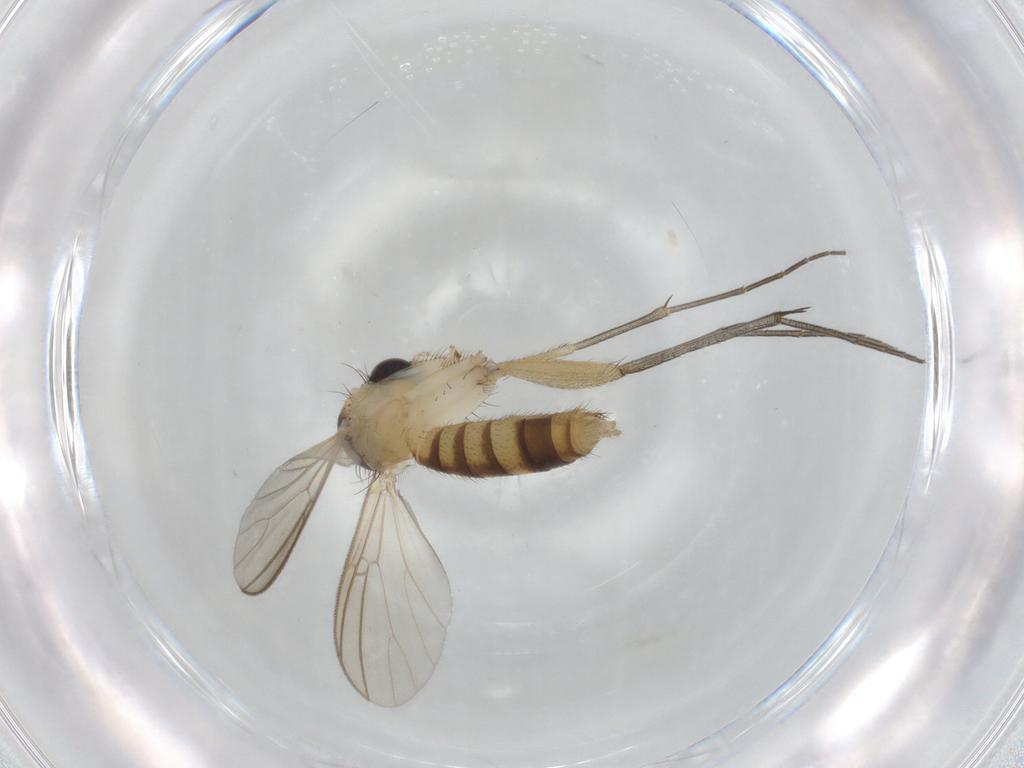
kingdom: Animalia
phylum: Arthropoda
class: Insecta
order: Diptera
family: Mycetophilidae
